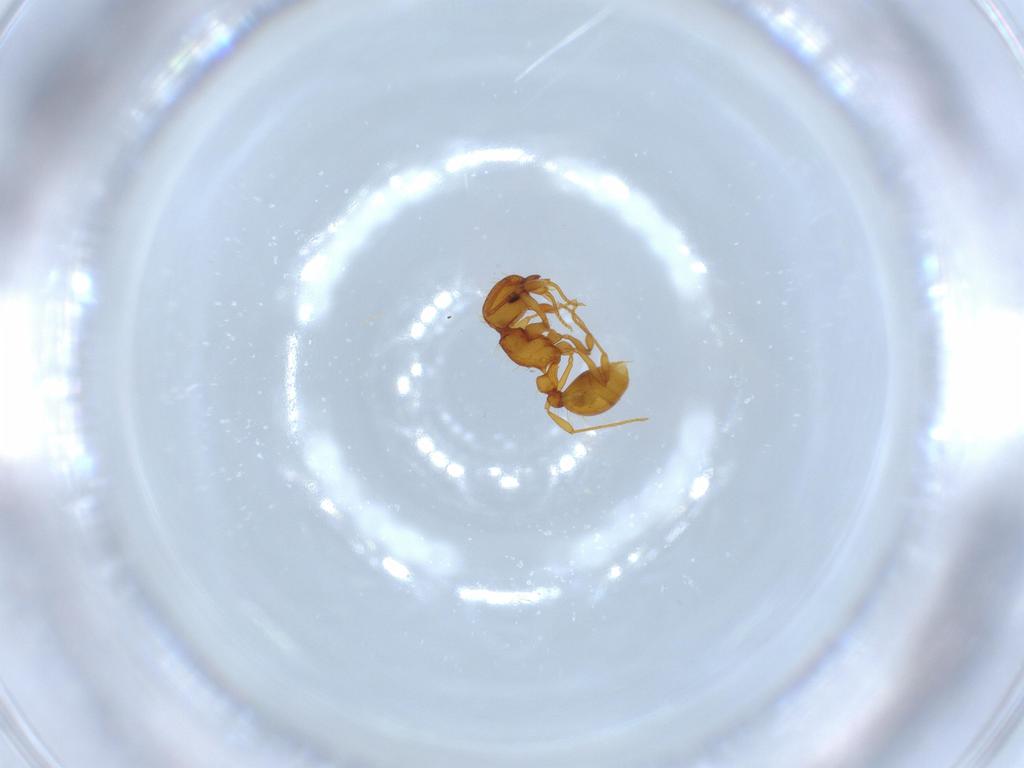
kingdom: Animalia
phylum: Arthropoda
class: Insecta
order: Hymenoptera
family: Formicidae
